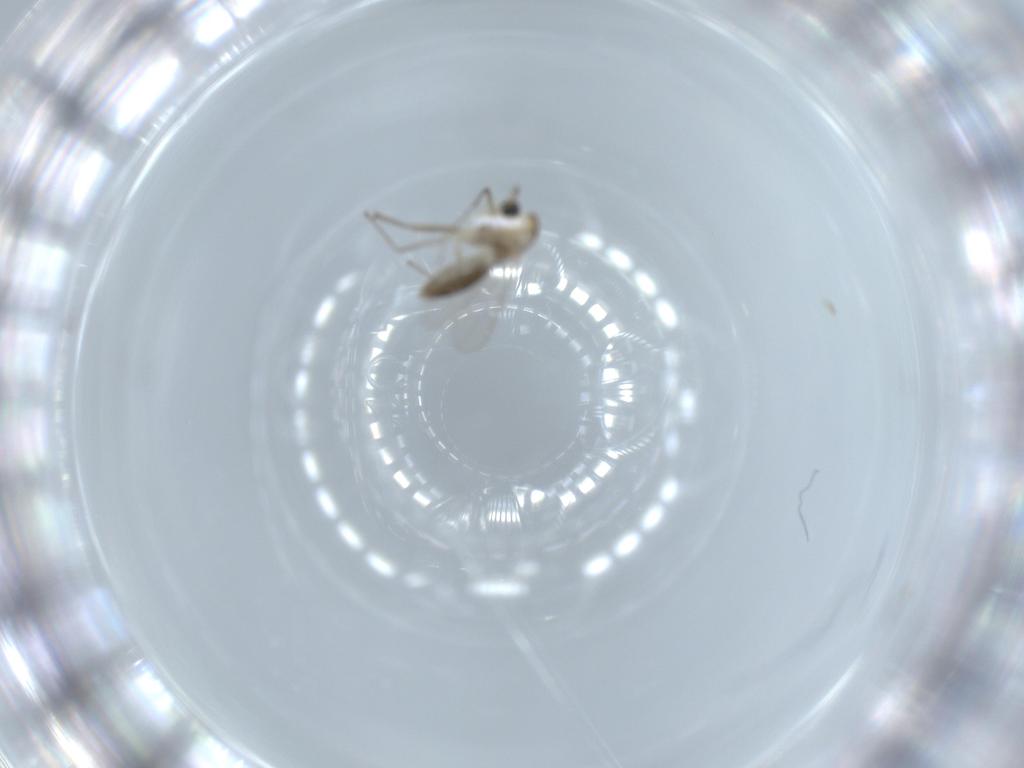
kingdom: Animalia
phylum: Arthropoda
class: Insecta
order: Diptera
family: Chironomidae
